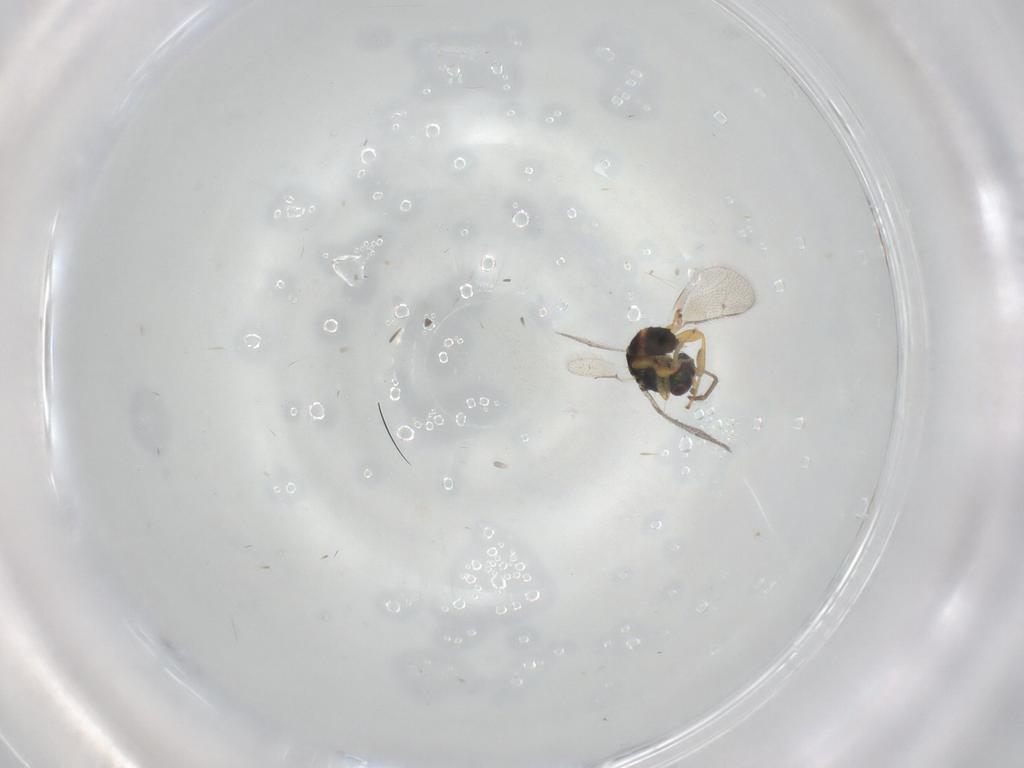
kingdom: Animalia
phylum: Arthropoda
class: Insecta
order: Hymenoptera
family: Torymidae
